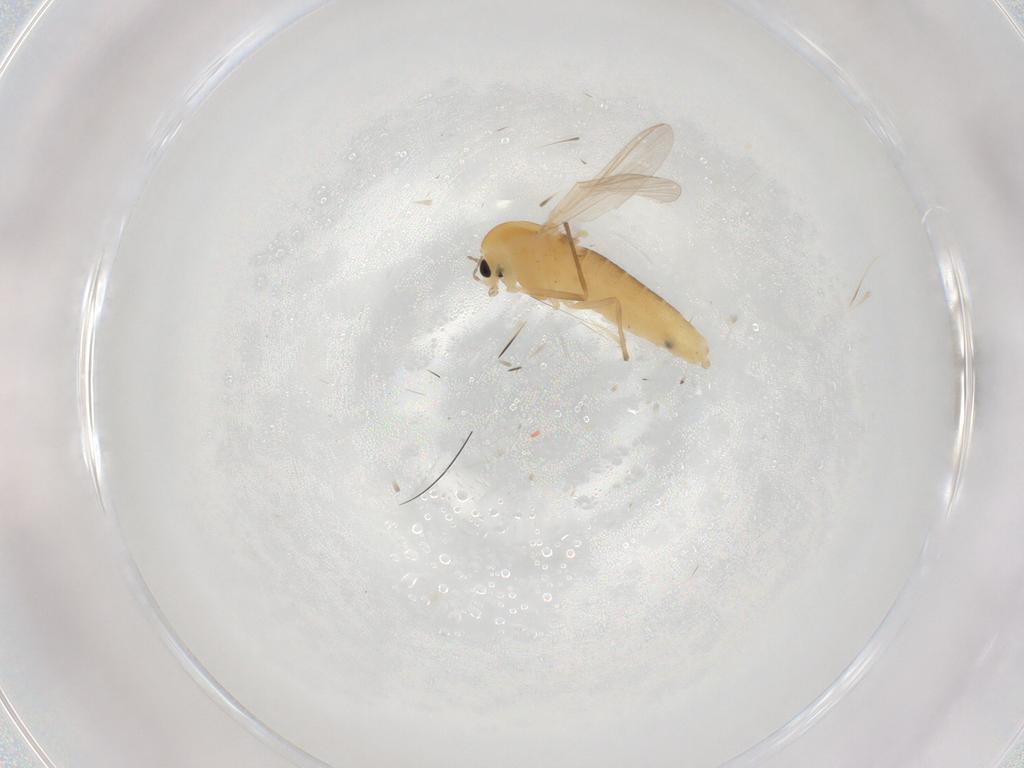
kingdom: Animalia
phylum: Arthropoda
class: Insecta
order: Diptera
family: Chironomidae
